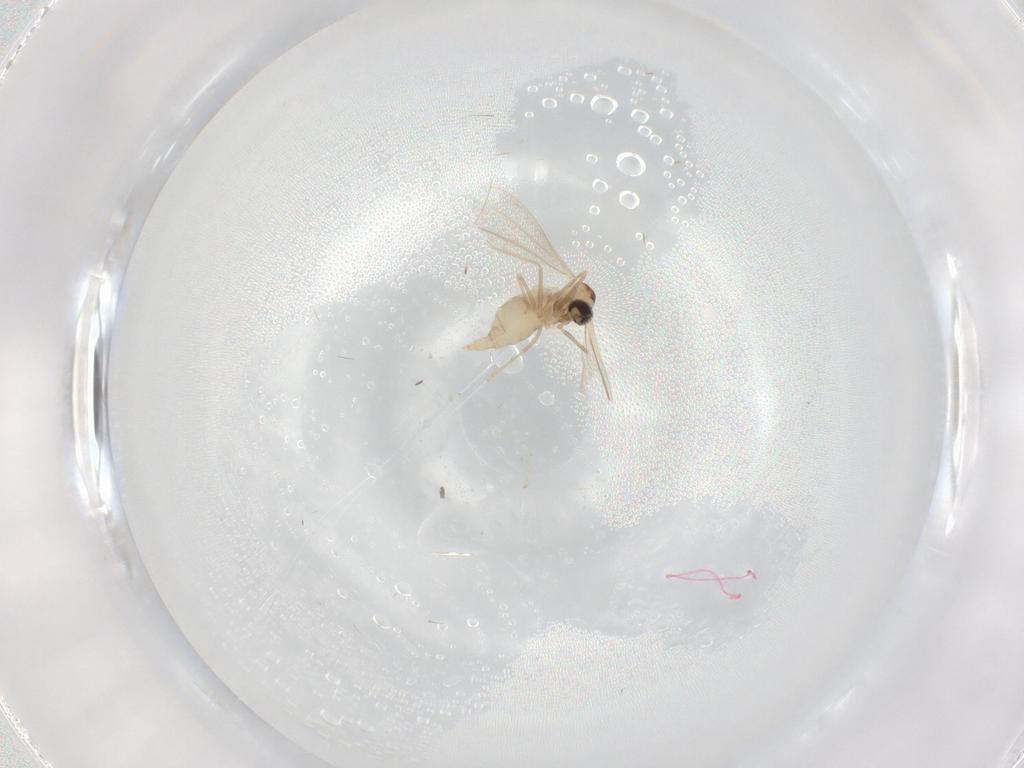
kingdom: Animalia
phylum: Arthropoda
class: Insecta
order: Diptera
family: Cecidomyiidae
